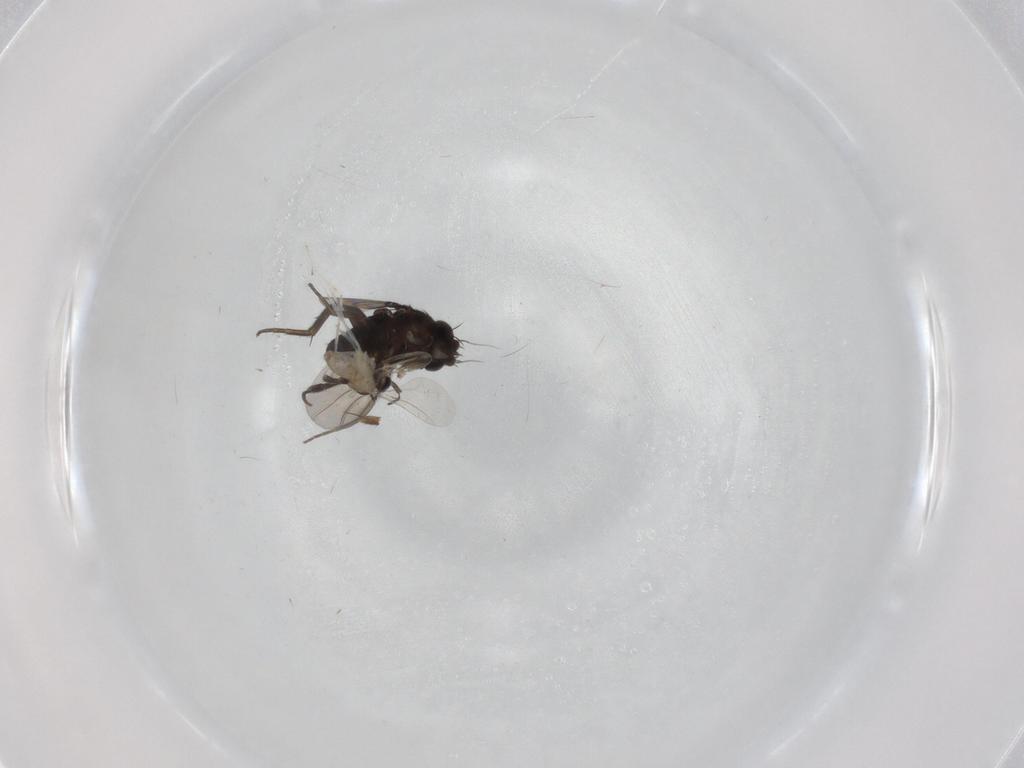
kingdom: Animalia
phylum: Arthropoda
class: Insecta
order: Diptera
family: Cecidomyiidae
